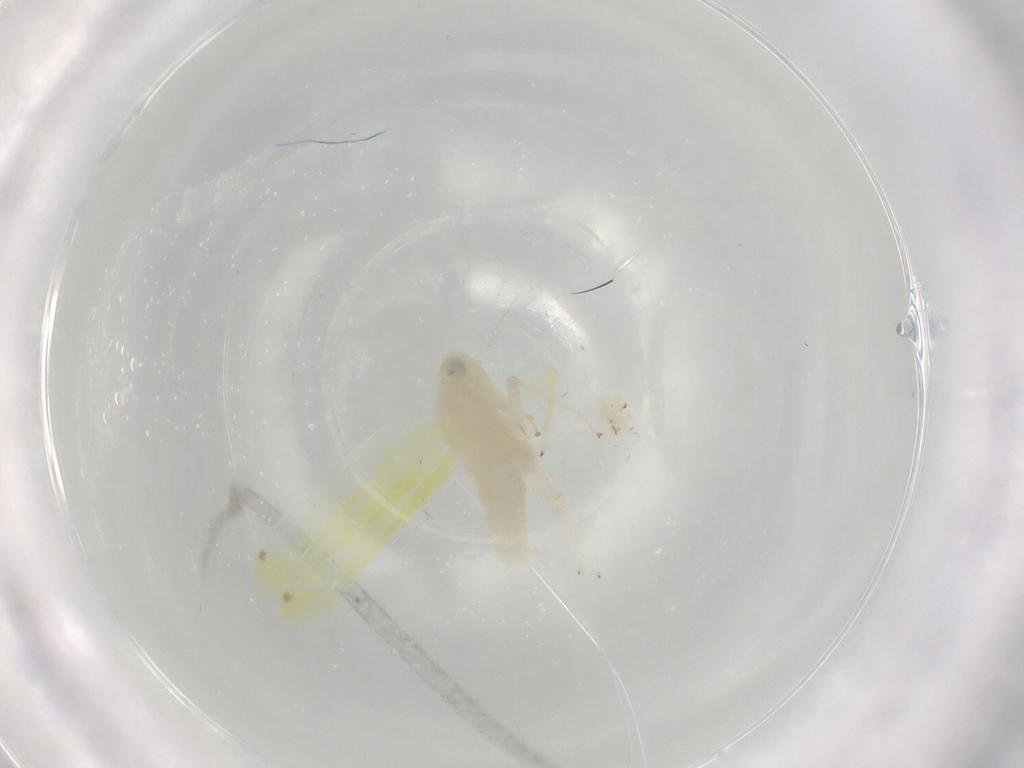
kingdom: Animalia
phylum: Arthropoda
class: Insecta
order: Hemiptera
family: Cicadellidae
